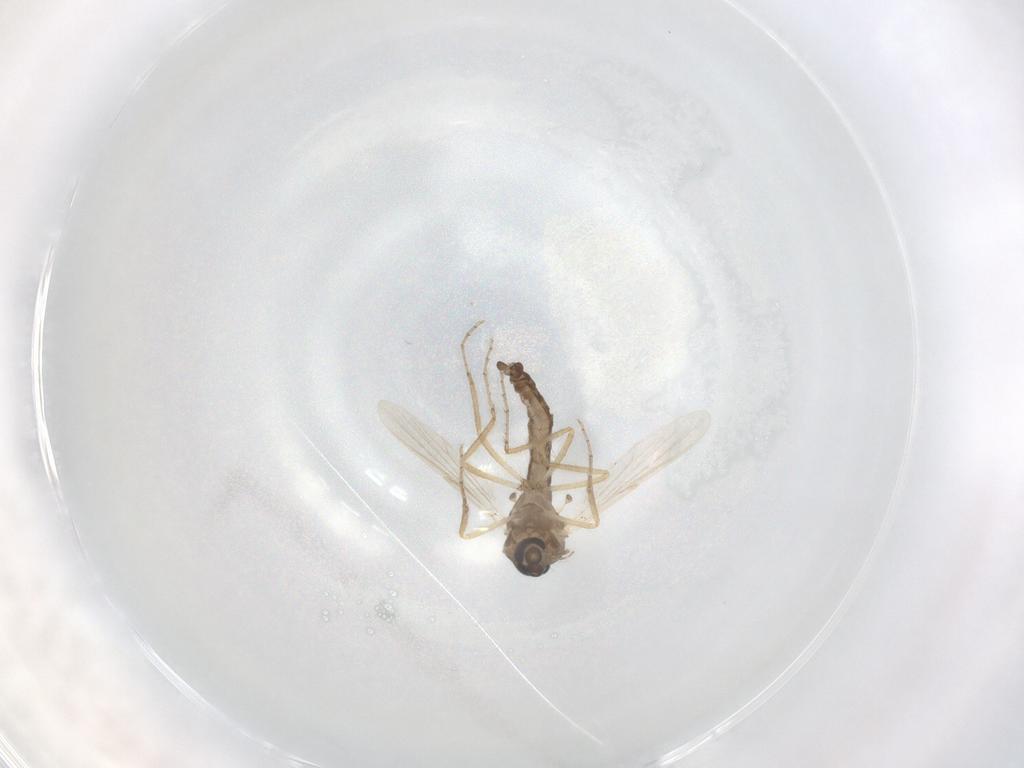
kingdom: Animalia
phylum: Arthropoda
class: Insecta
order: Diptera
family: Ceratopogonidae
